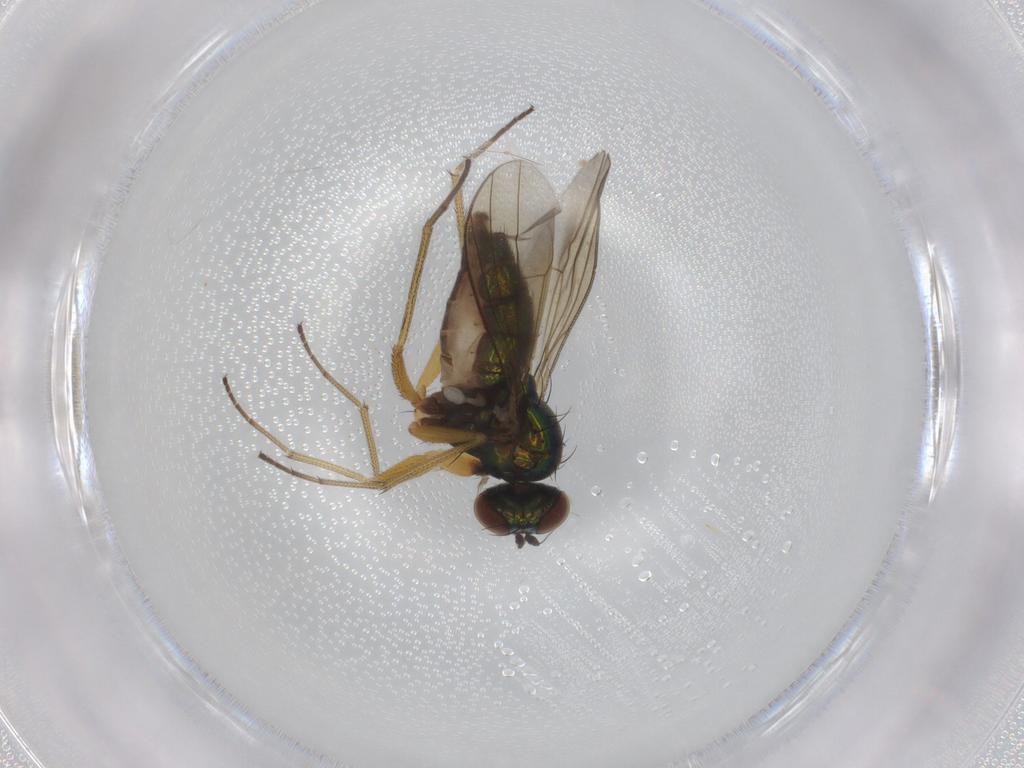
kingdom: Animalia
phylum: Arthropoda
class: Insecta
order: Diptera
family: Dolichopodidae
